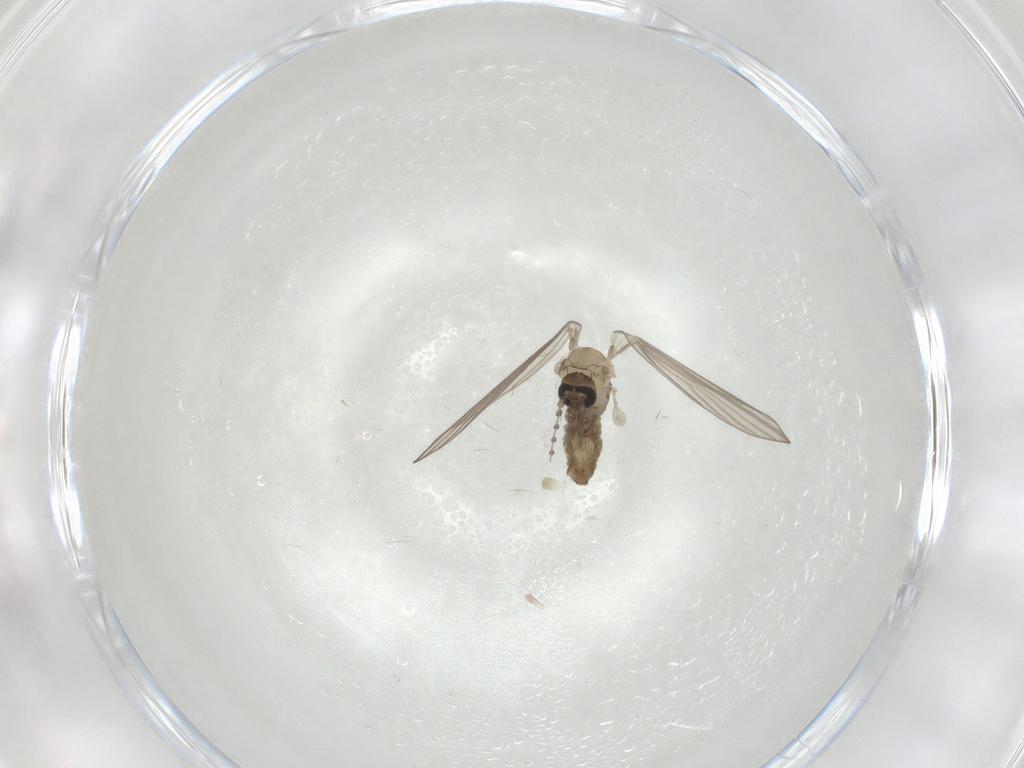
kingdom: Animalia
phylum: Arthropoda
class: Insecta
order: Diptera
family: Psychodidae
